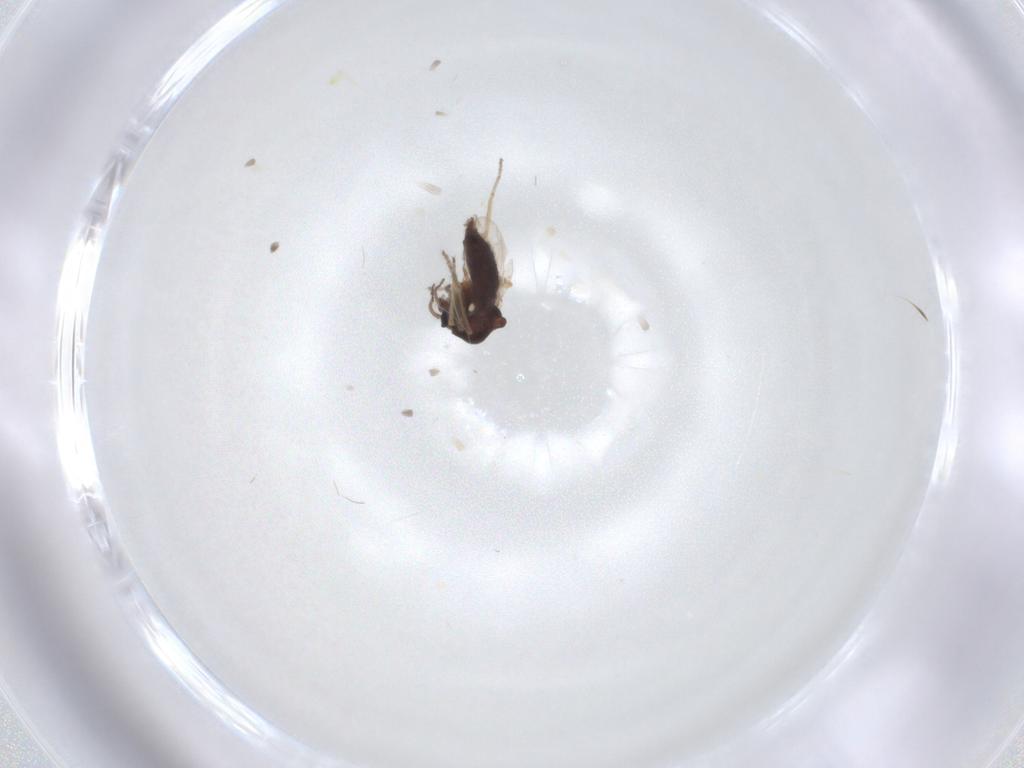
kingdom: Animalia
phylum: Arthropoda
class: Insecta
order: Diptera
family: Ceratopogonidae
